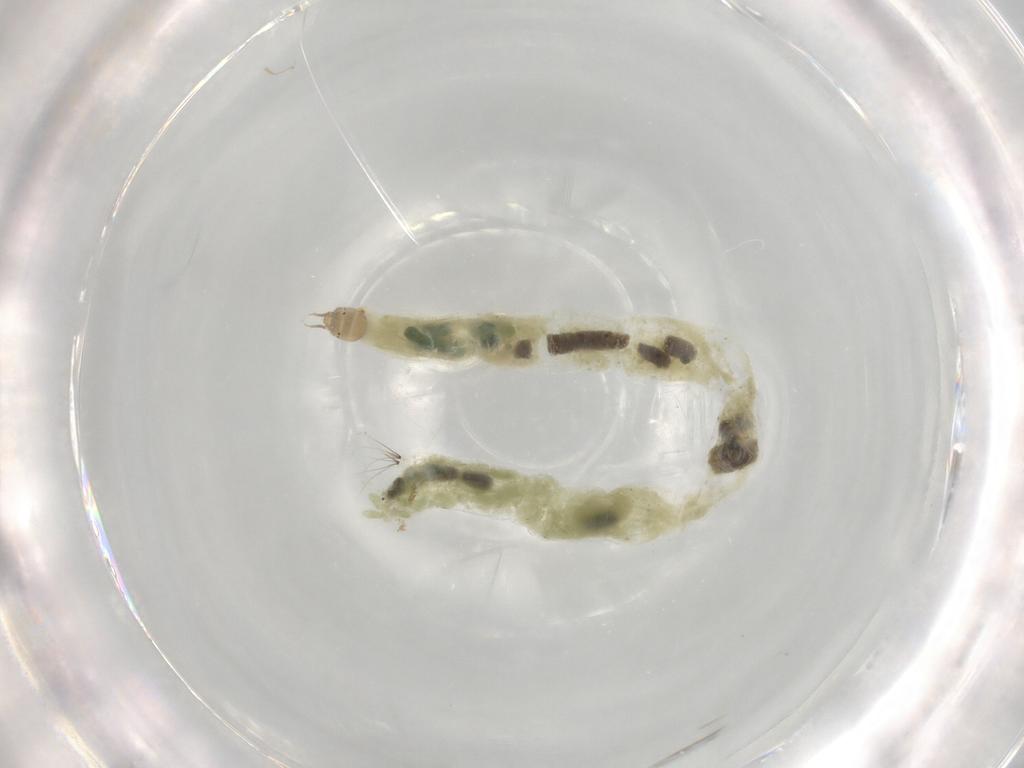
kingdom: Animalia
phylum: Arthropoda
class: Insecta
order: Diptera
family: Chironomidae
